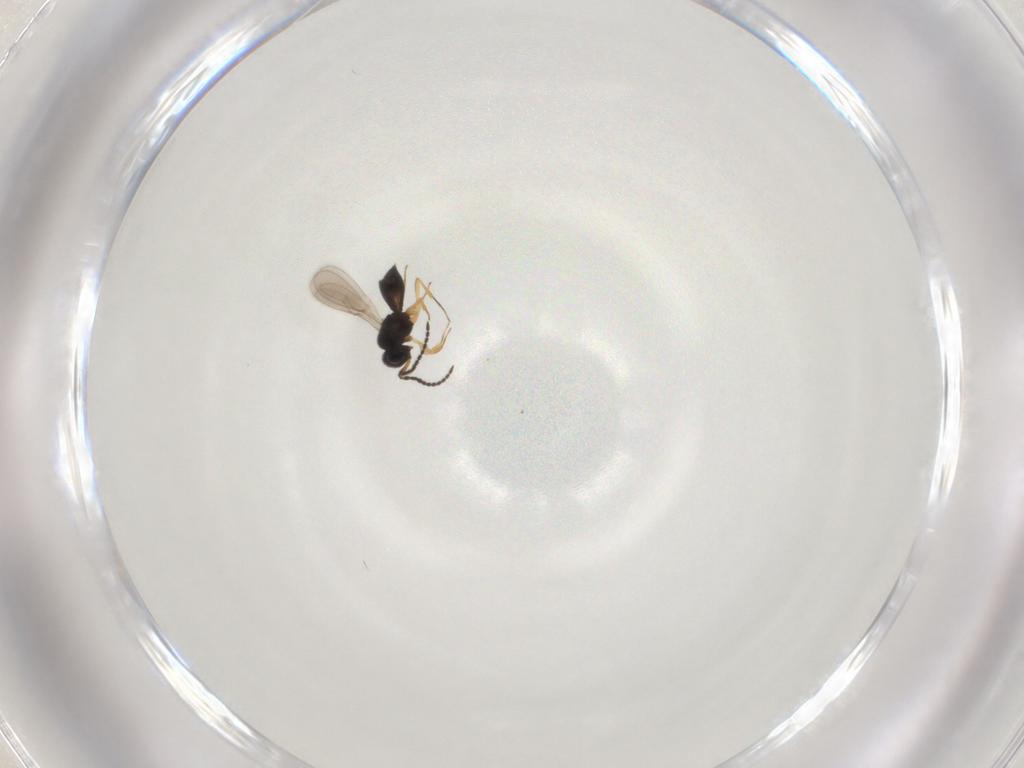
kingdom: Animalia
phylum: Arthropoda
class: Insecta
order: Hymenoptera
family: Scelionidae
